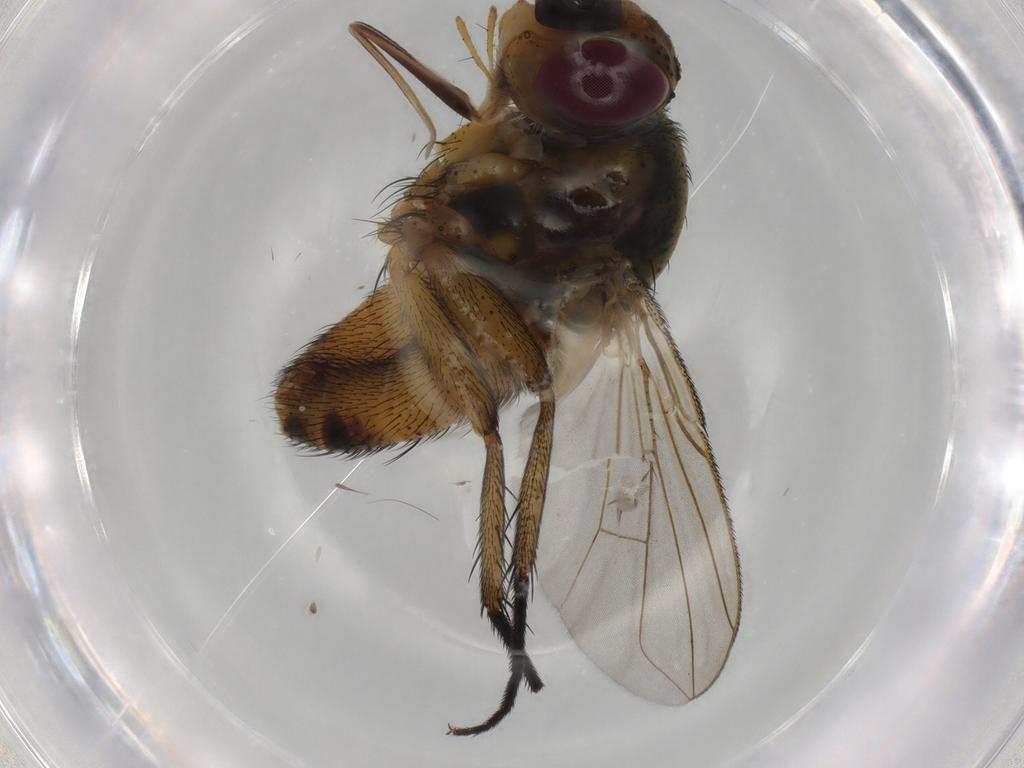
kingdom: Animalia
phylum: Arthropoda
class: Insecta
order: Diptera
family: Tachinidae
